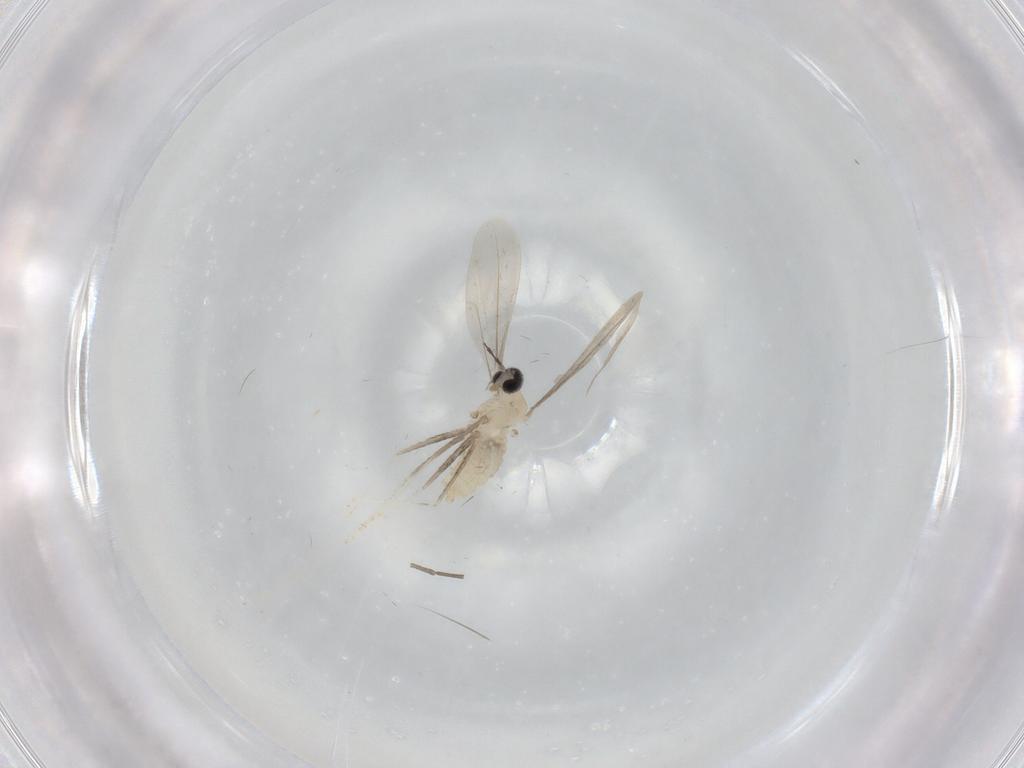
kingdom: Animalia
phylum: Arthropoda
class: Insecta
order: Diptera
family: Cecidomyiidae
